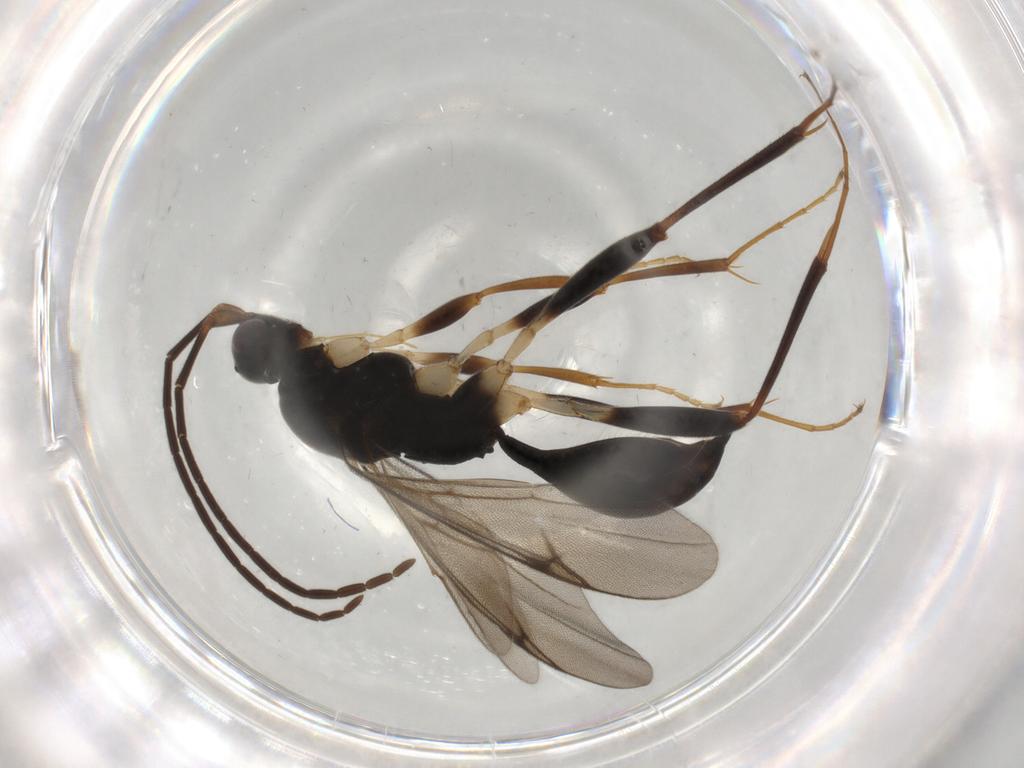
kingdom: Animalia
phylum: Arthropoda
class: Insecta
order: Hymenoptera
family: Proctotrupidae
